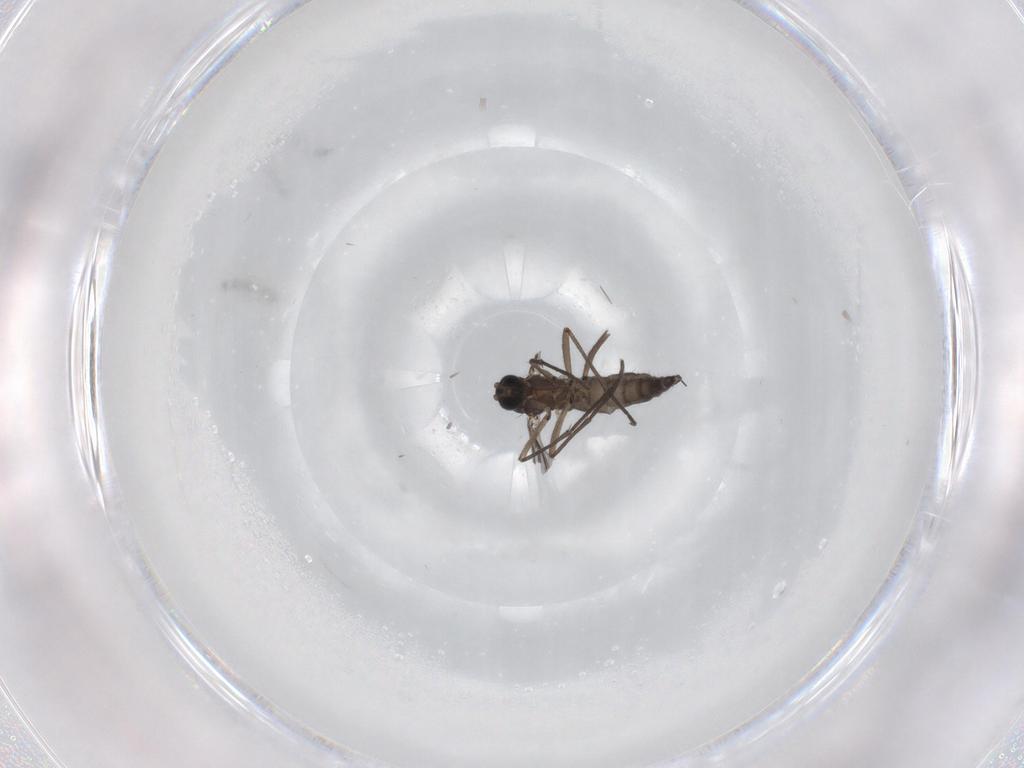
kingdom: Animalia
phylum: Arthropoda
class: Insecta
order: Diptera
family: Sciaridae
